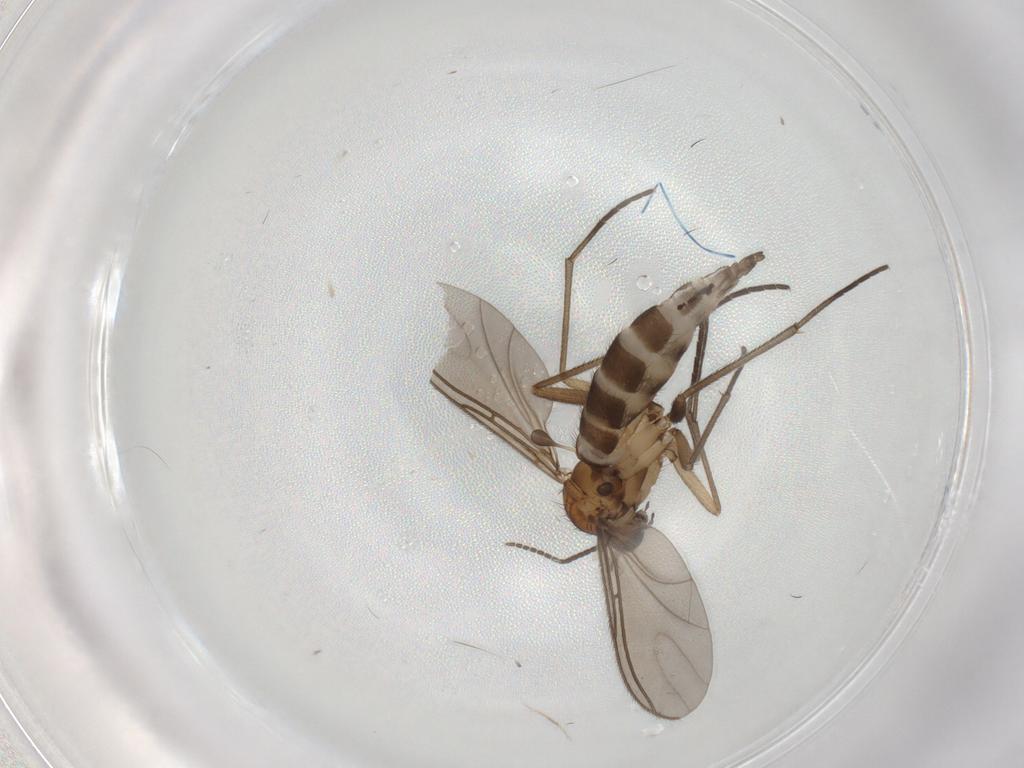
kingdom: Animalia
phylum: Arthropoda
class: Insecta
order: Diptera
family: Sciaridae
